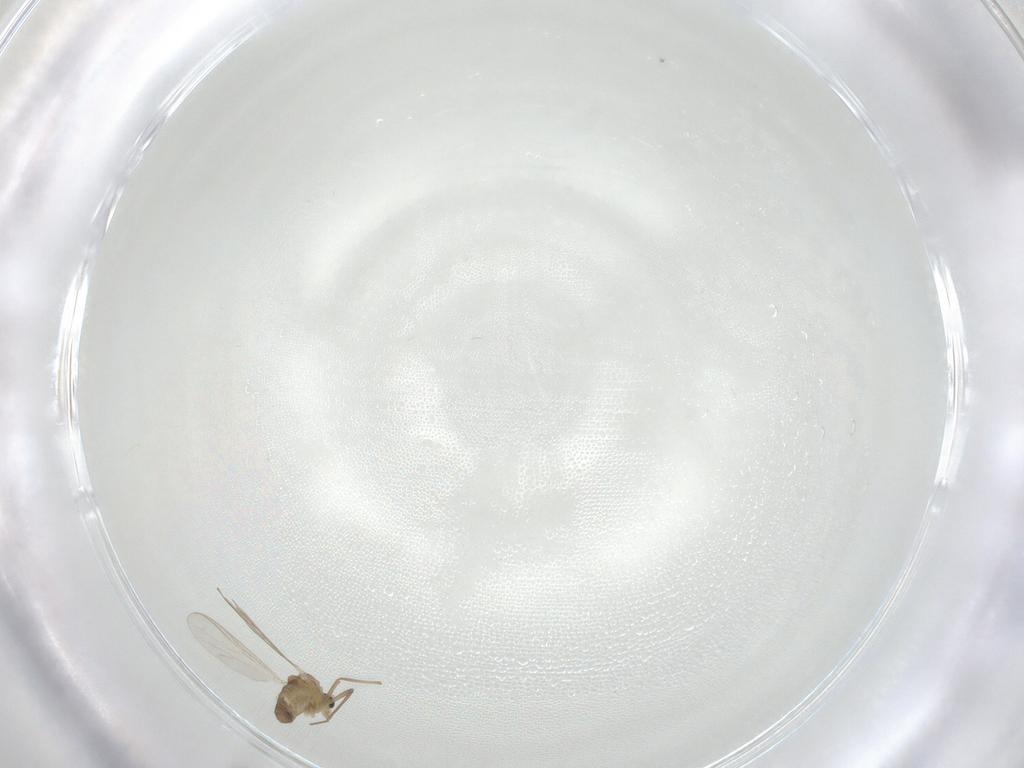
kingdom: Animalia
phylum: Arthropoda
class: Insecta
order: Diptera
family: Chironomidae
